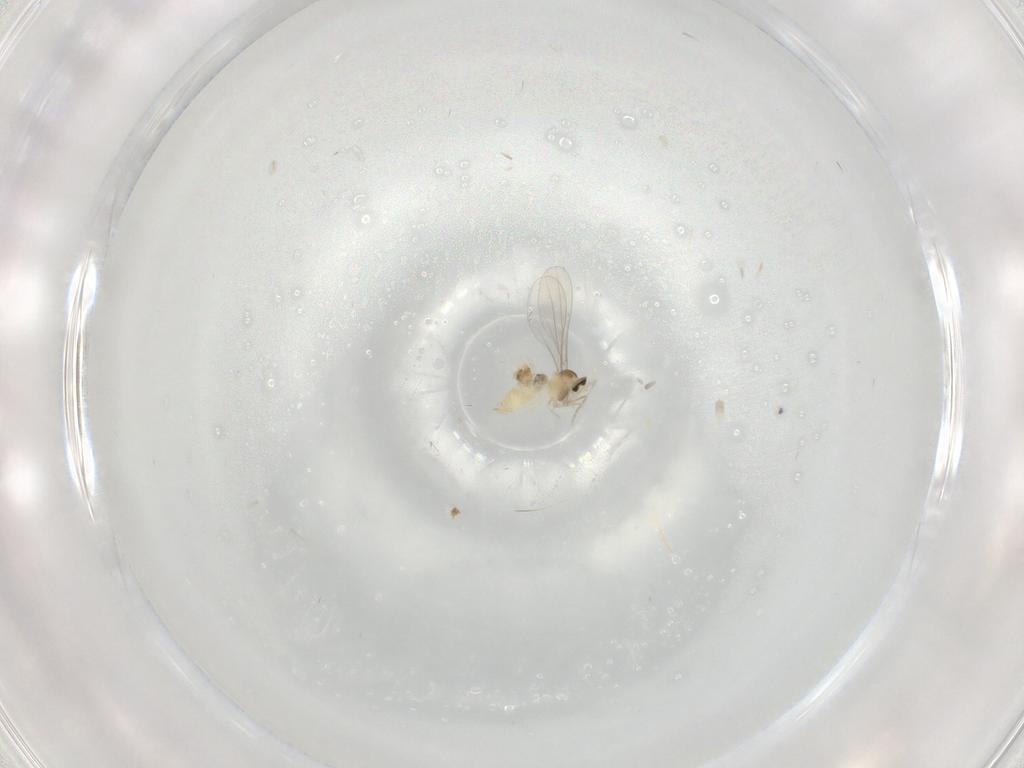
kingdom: Animalia
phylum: Arthropoda
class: Insecta
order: Diptera
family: Cecidomyiidae
